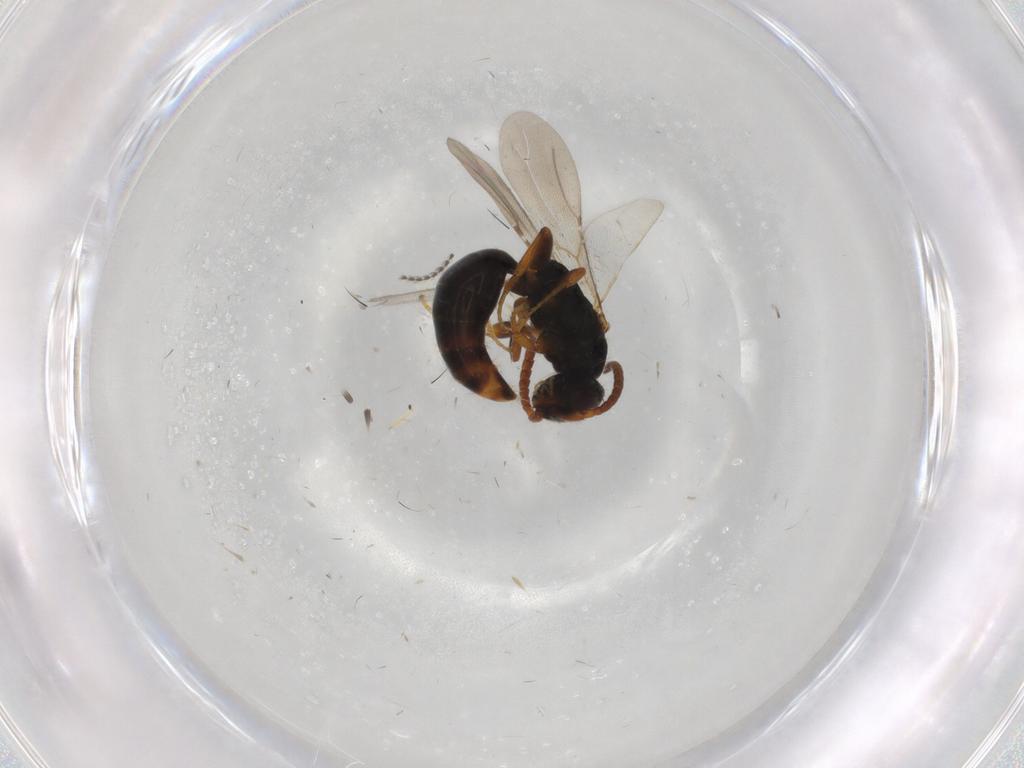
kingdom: Animalia
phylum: Arthropoda
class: Insecta
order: Hymenoptera
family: Bethylidae
